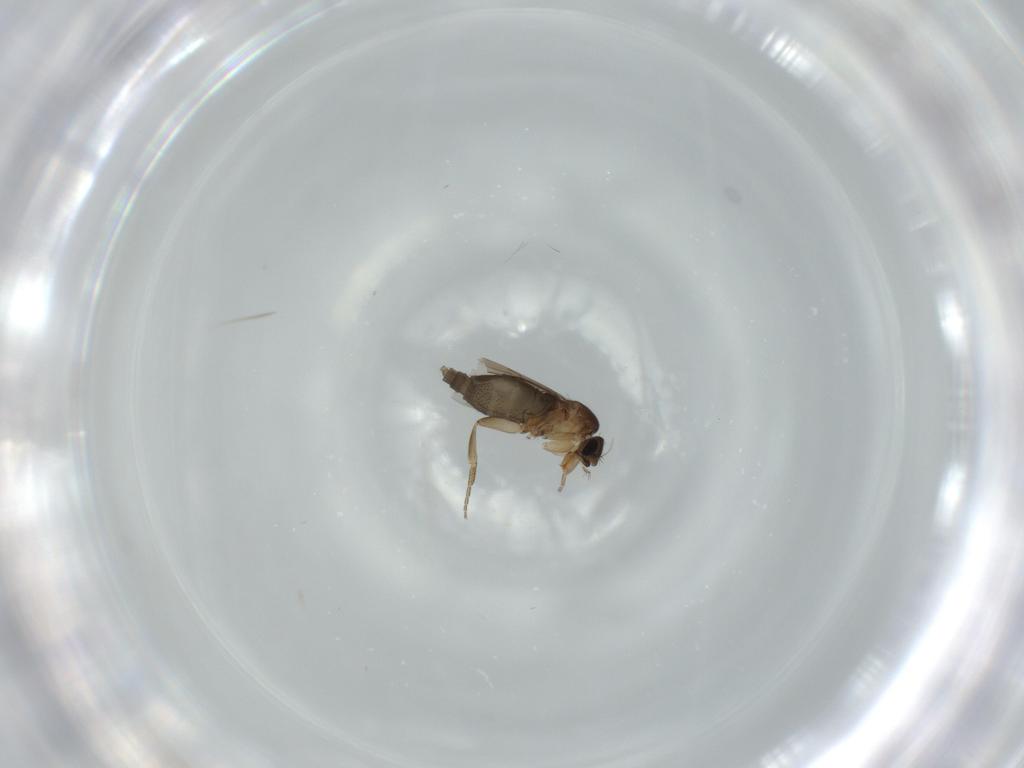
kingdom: Animalia
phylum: Arthropoda
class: Insecta
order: Diptera
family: Phoridae
